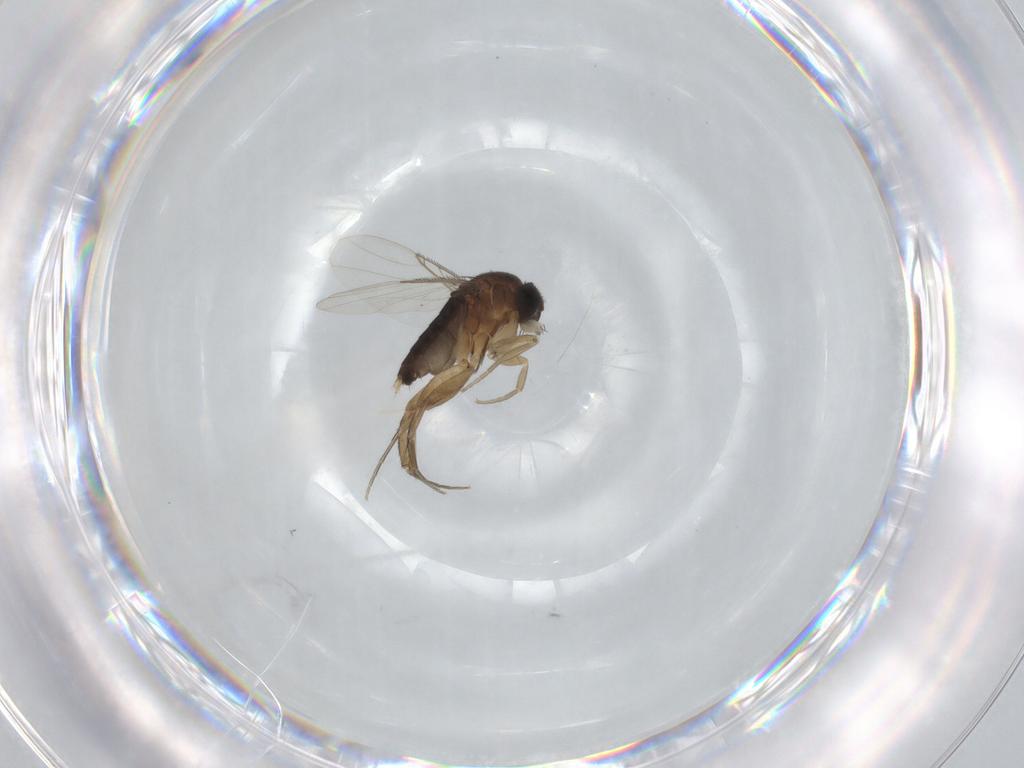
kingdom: Animalia
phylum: Arthropoda
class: Insecta
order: Diptera
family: Phoridae
